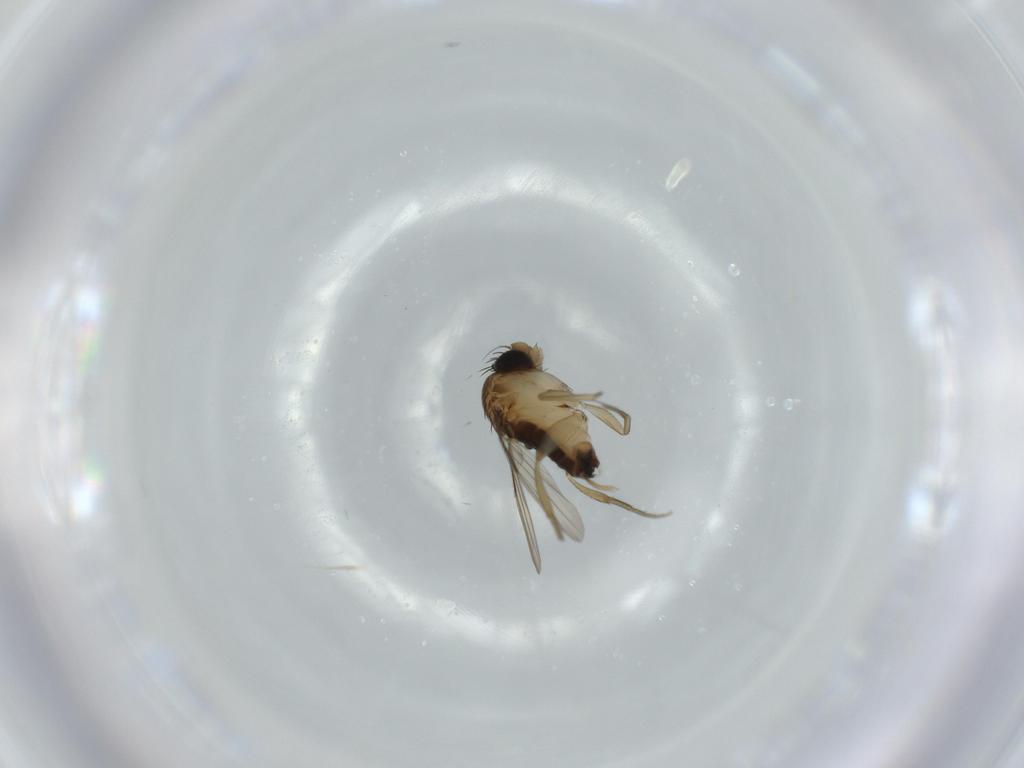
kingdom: Animalia
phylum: Arthropoda
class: Insecta
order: Diptera
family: Phoridae
